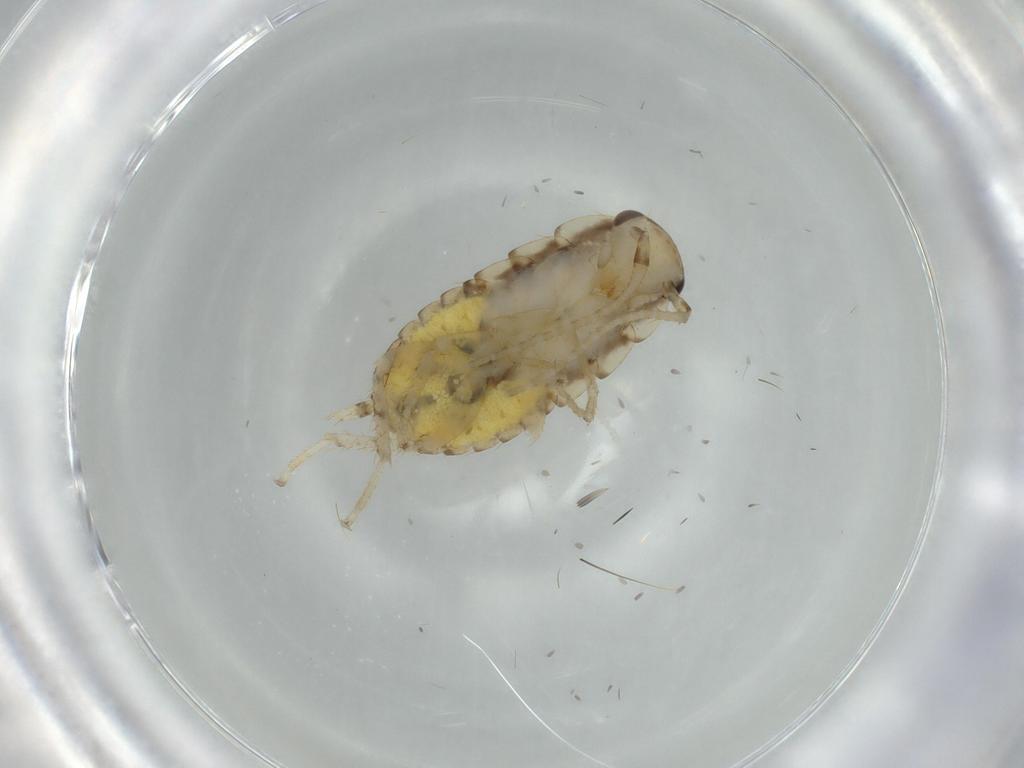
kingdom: Animalia
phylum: Arthropoda
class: Insecta
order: Blattodea
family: Ectobiidae
